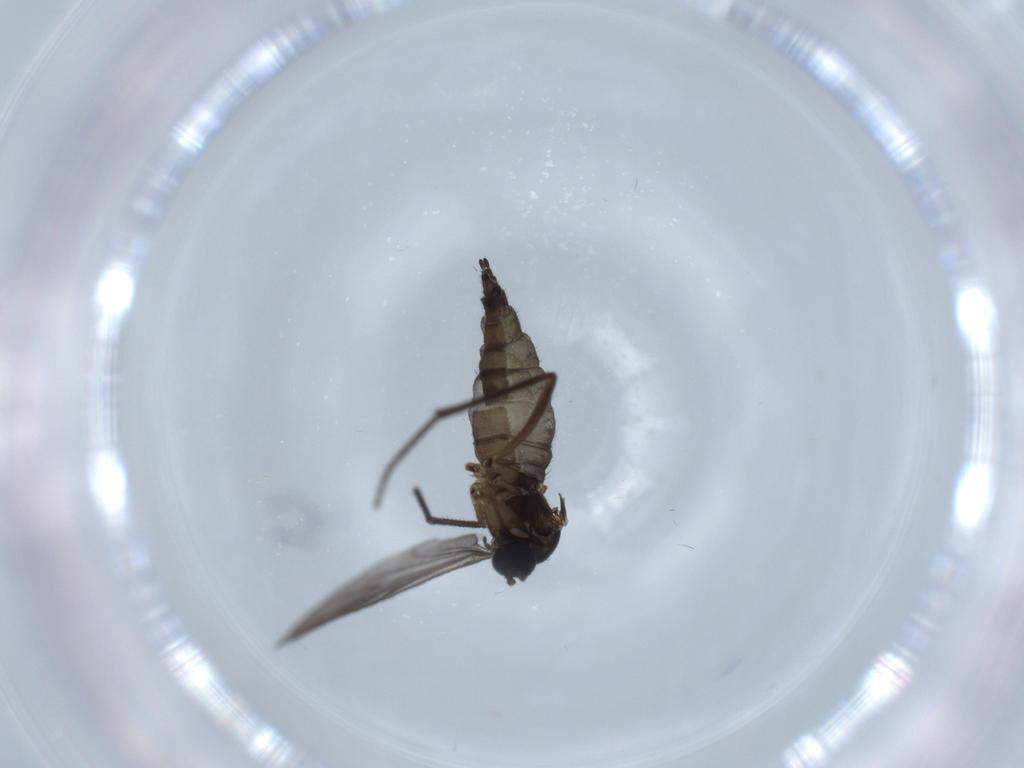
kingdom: Animalia
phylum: Arthropoda
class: Insecta
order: Diptera
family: Sciaridae
